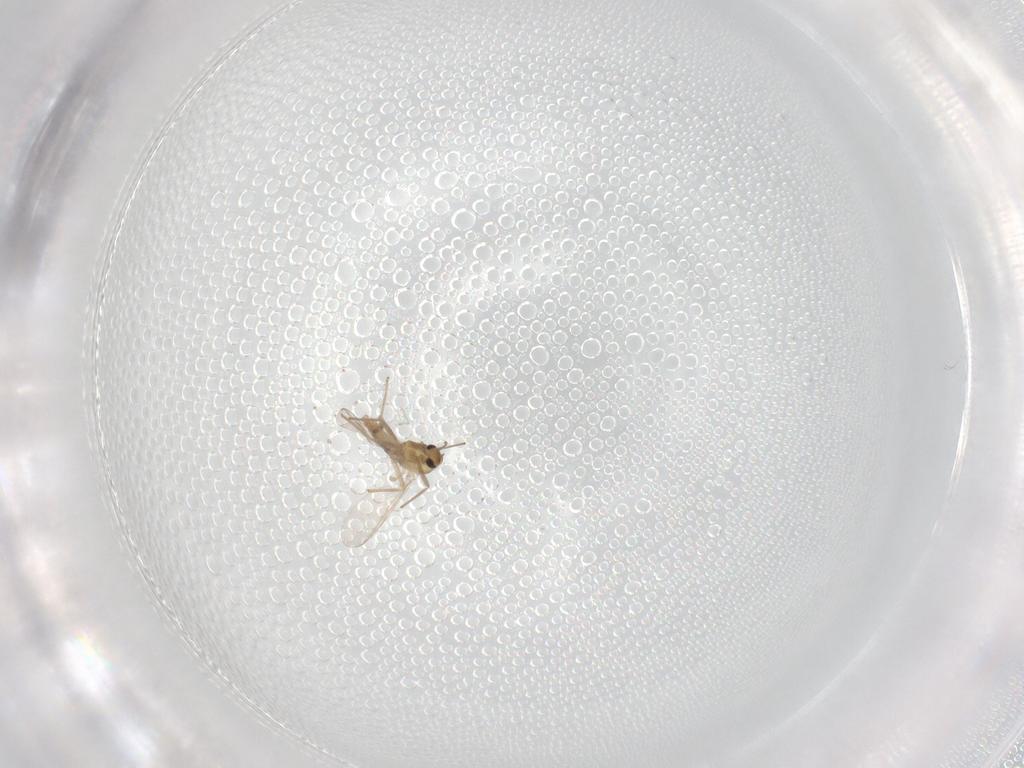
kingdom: Animalia
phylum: Arthropoda
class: Insecta
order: Diptera
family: Chironomidae
